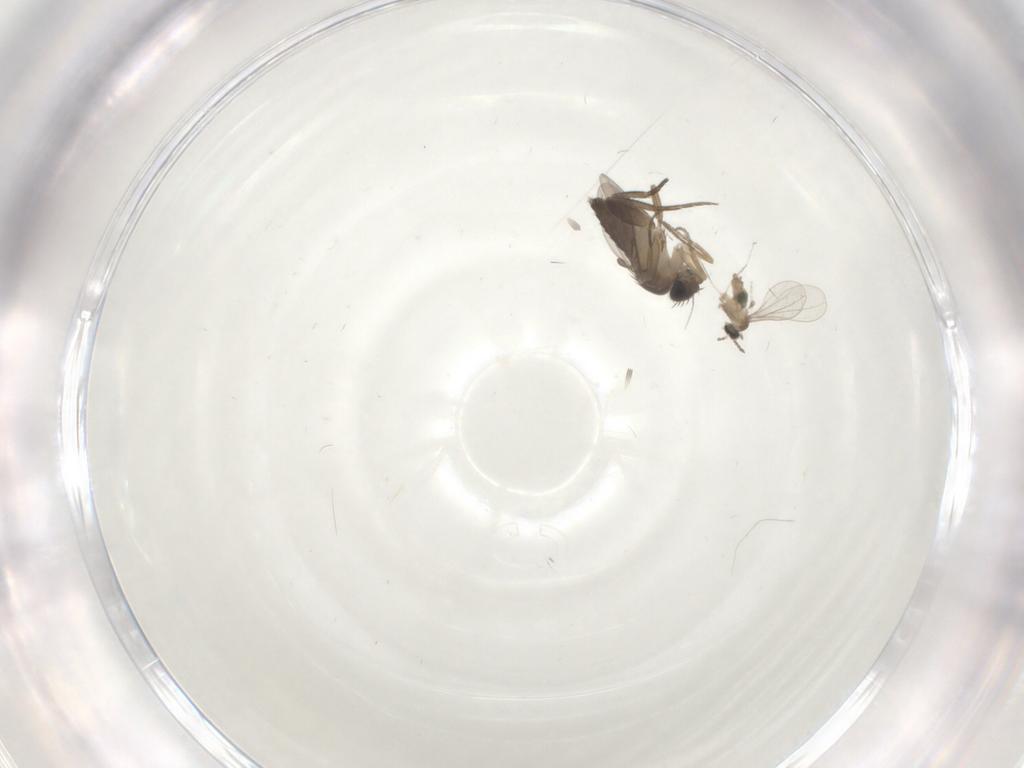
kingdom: Animalia
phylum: Arthropoda
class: Insecta
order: Diptera
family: Phoridae
